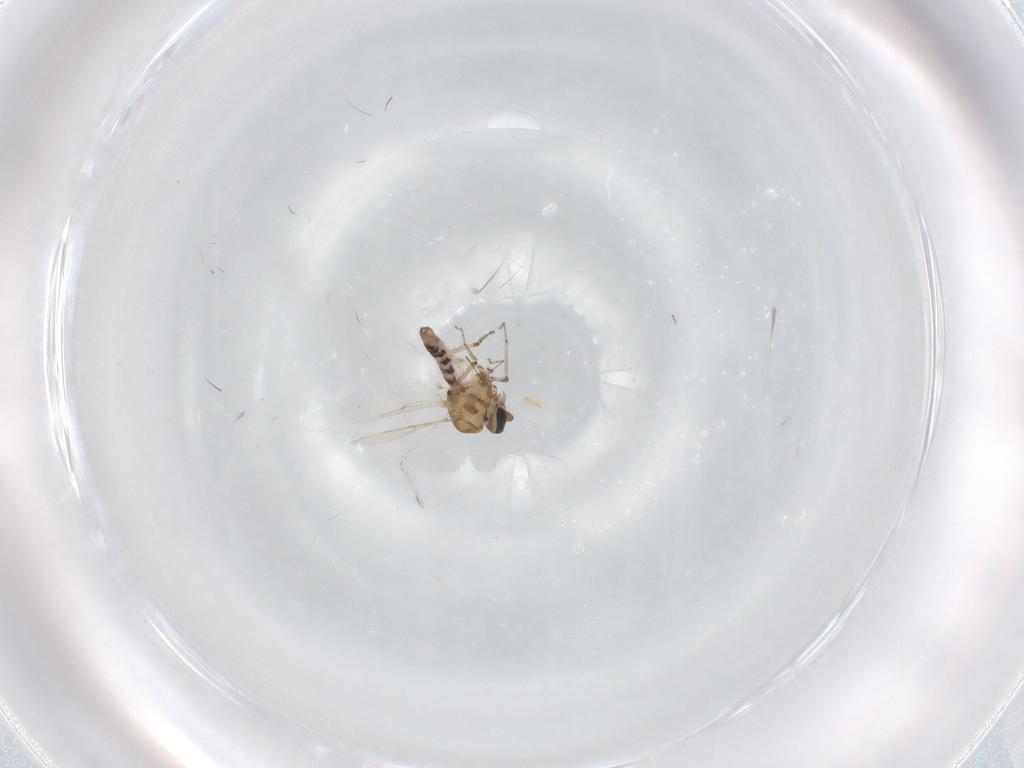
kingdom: Animalia
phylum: Arthropoda
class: Insecta
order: Diptera
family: Ceratopogonidae
